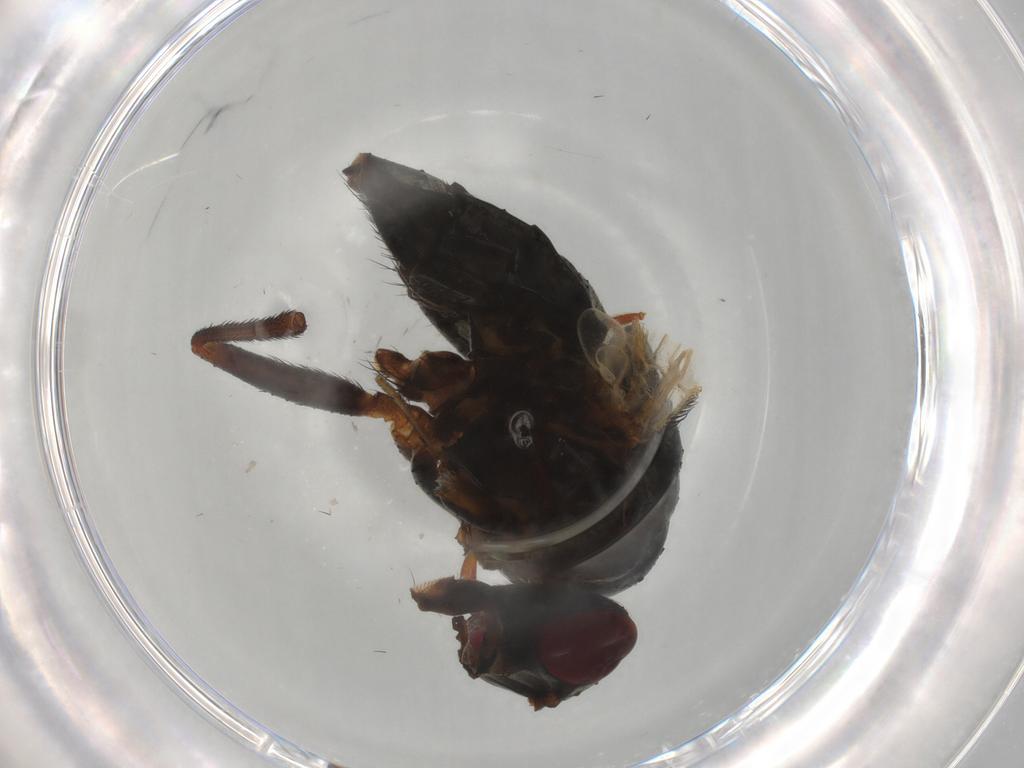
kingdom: Animalia
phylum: Arthropoda
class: Insecta
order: Diptera
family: Muscidae
